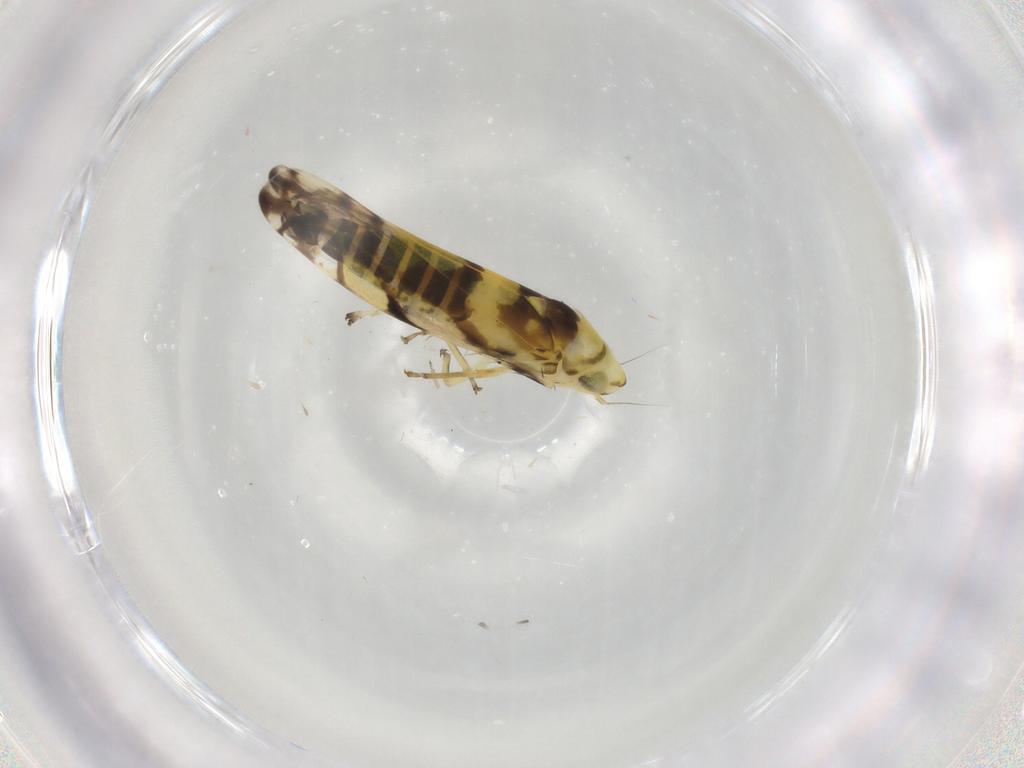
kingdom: Animalia
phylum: Arthropoda
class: Insecta
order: Hemiptera
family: Cicadellidae
